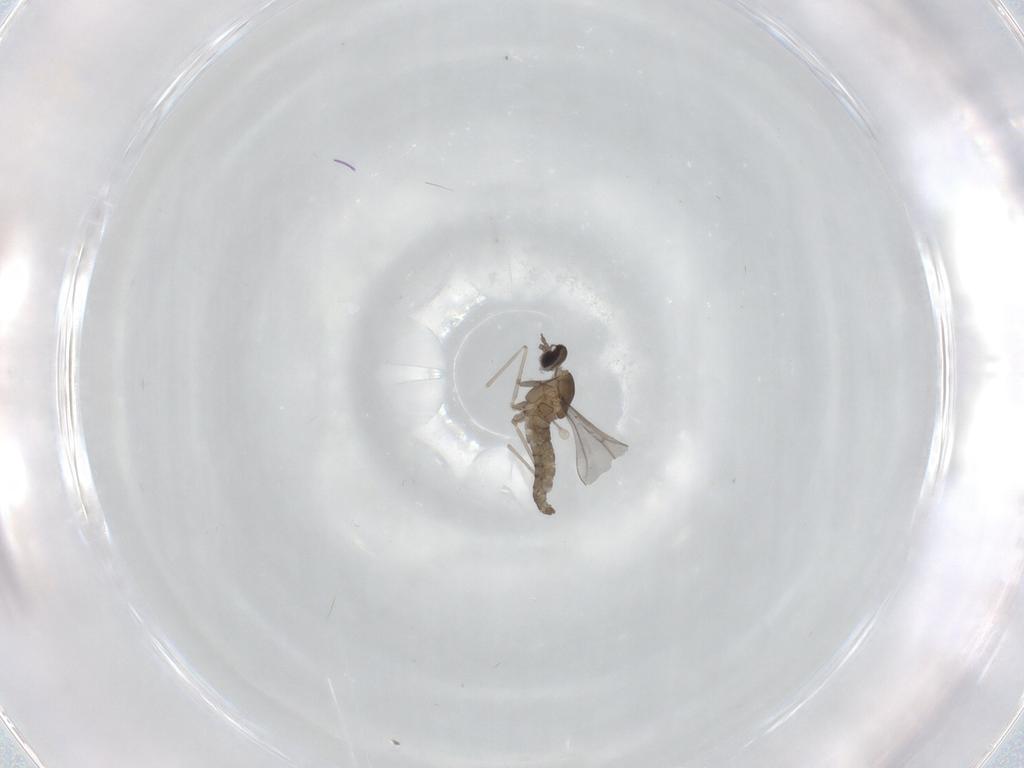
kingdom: Animalia
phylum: Arthropoda
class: Insecta
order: Diptera
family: Cecidomyiidae
